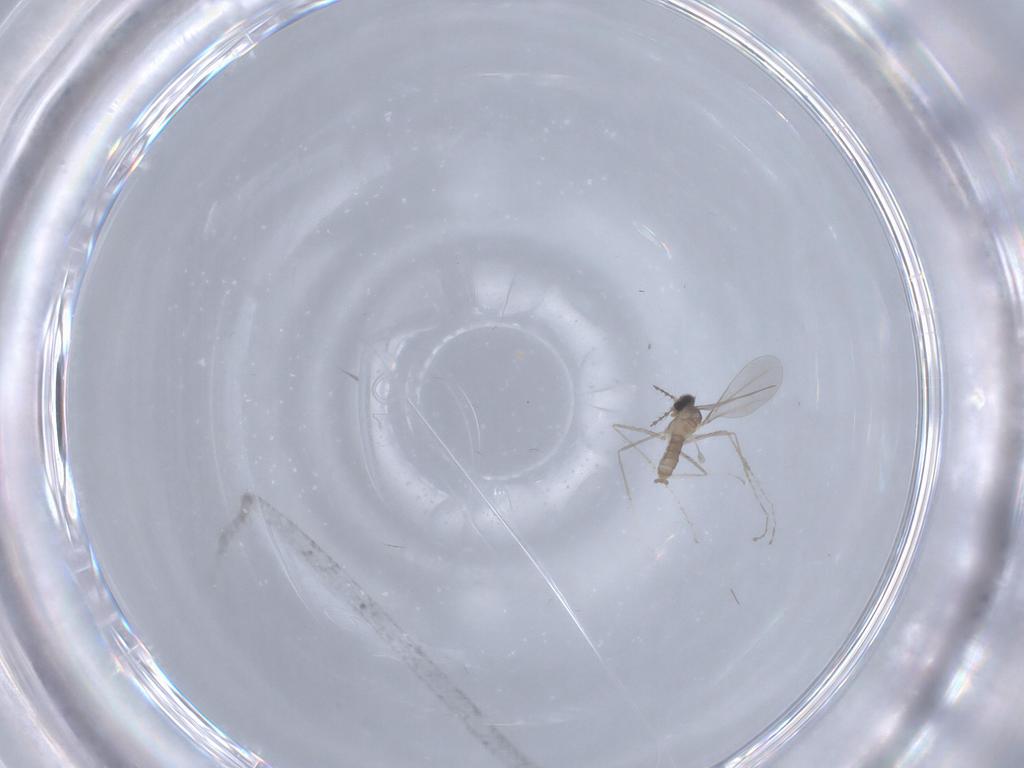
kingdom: Animalia
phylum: Arthropoda
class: Insecta
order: Diptera
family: Cecidomyiidae
